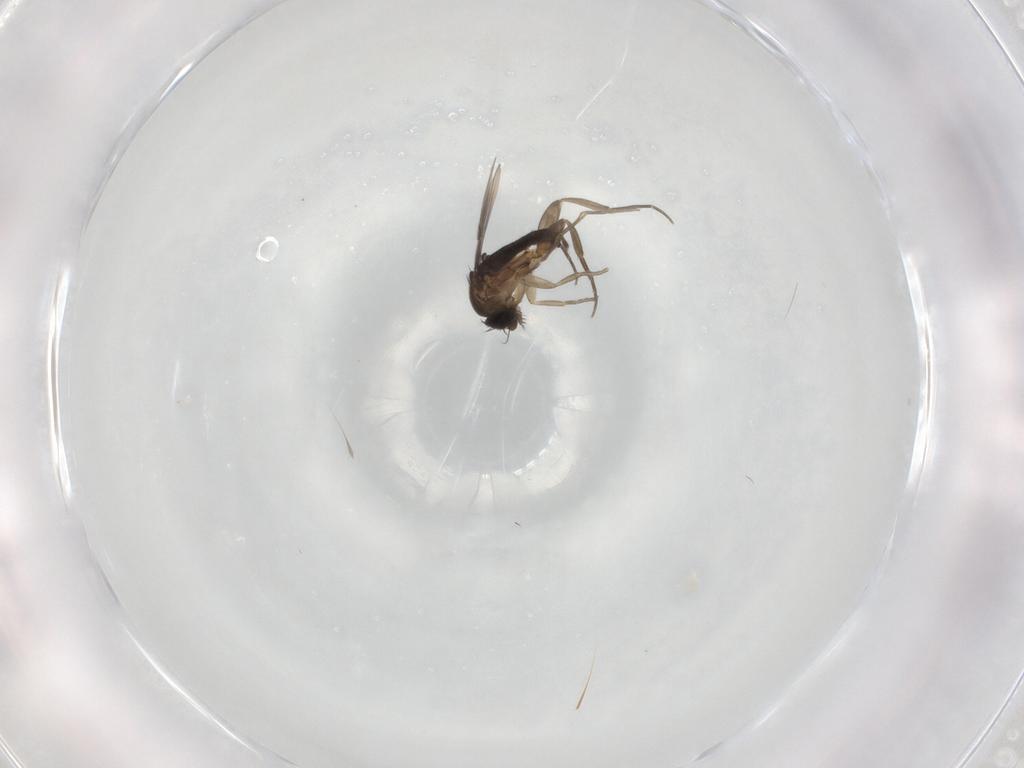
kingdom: Animalia
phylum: Arthropoda
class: Insecta
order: Diptera
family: Phoridae
